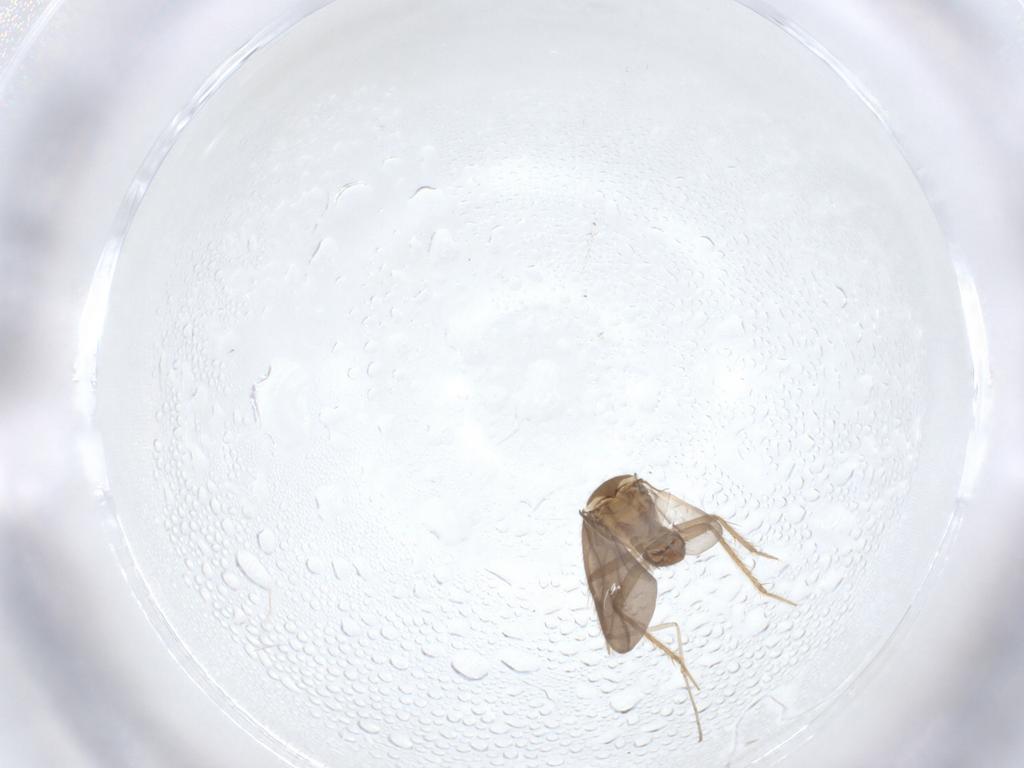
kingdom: Animalia
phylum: Arthropoda
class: Insecta
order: Hemiptera
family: Ceratocombidae
